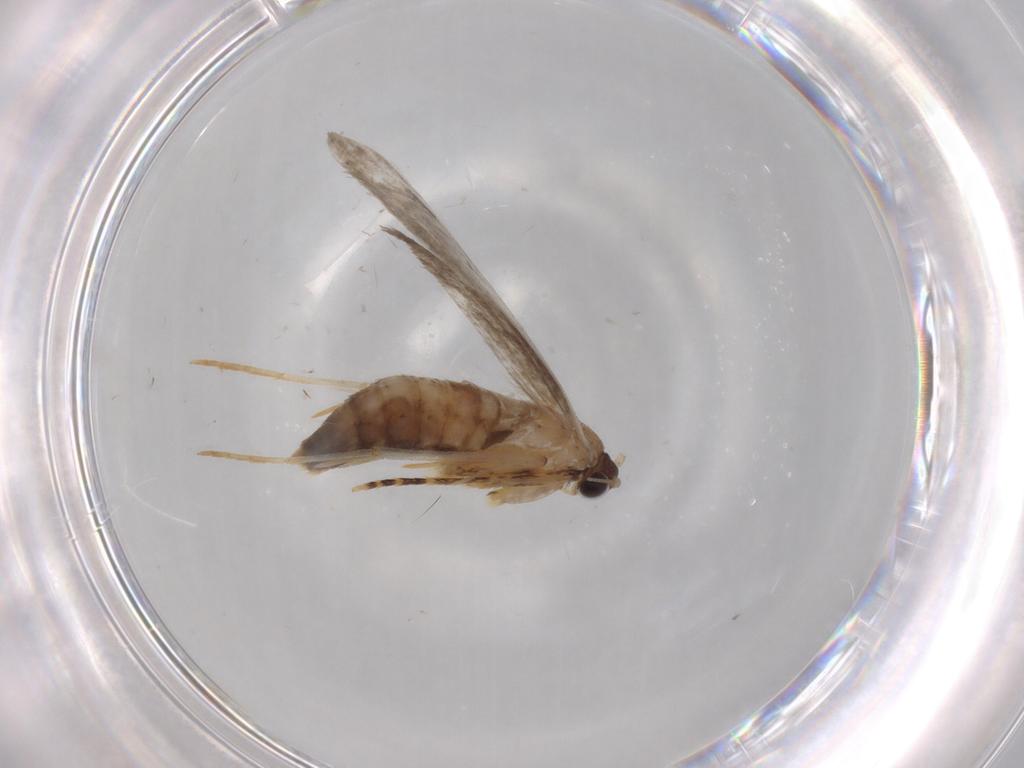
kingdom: Animalia
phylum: Arthropoda
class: Insecta
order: Lepidoptera
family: Tineidae
